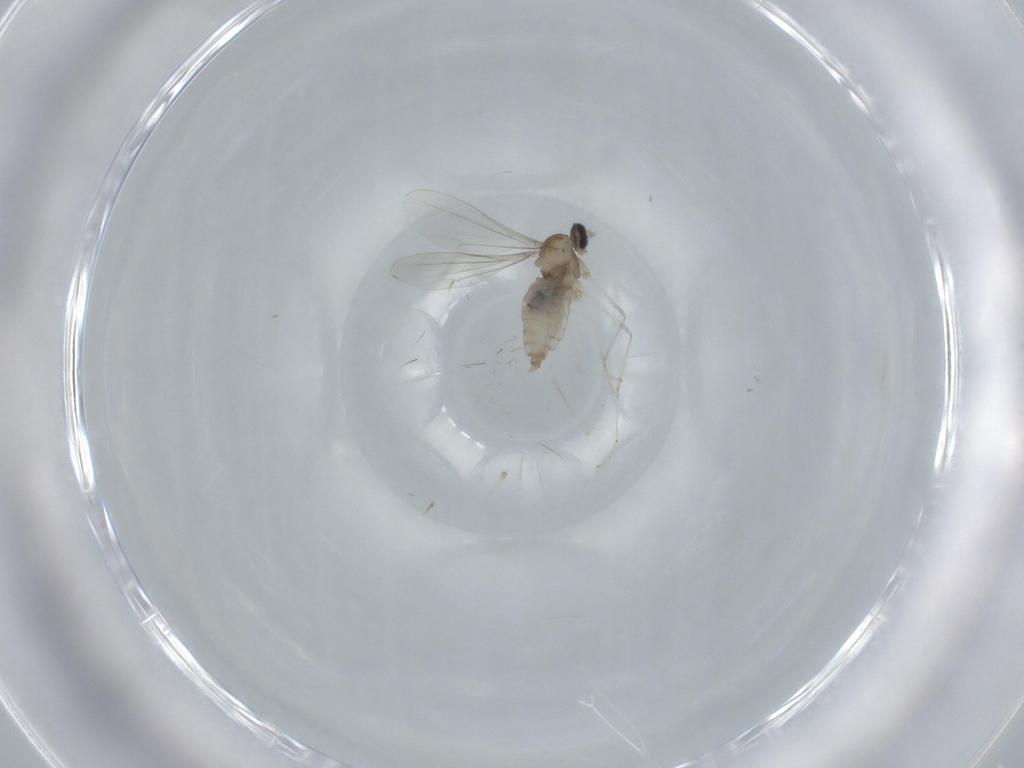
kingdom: Animalia
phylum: Arthropoda
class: Insecta
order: Diptera
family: Cecidomyiidae
